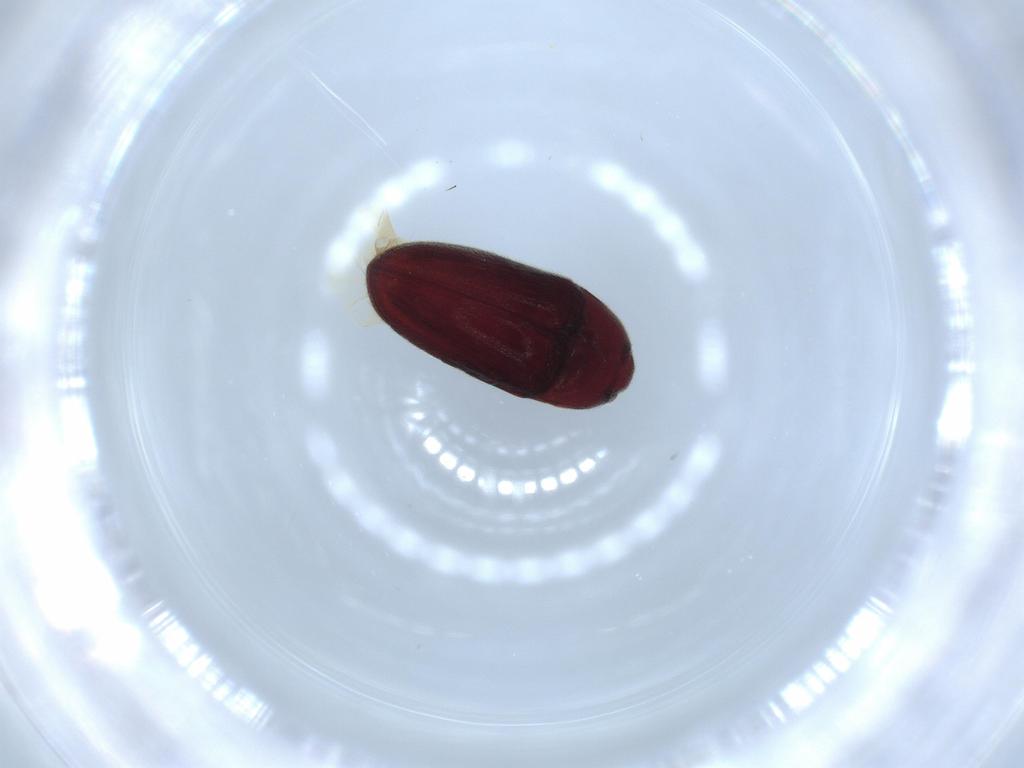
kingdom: Animalia
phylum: Arthropoda
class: Insecta
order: Coleoptera
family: Throscidae
